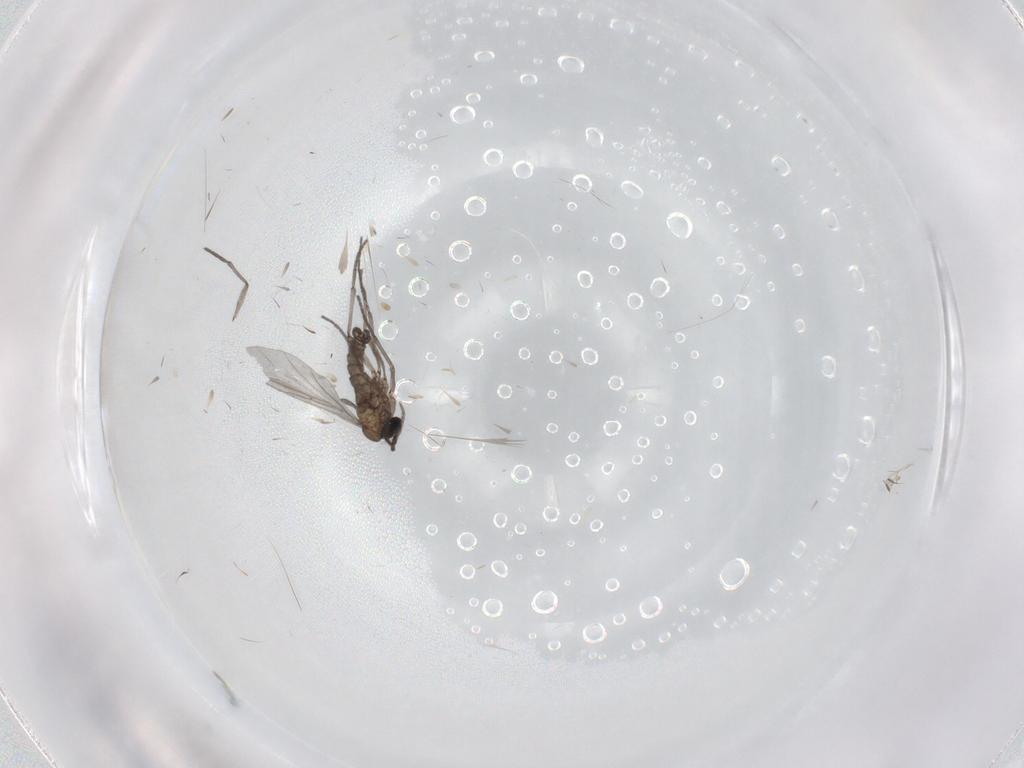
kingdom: Animalia
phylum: Arthropoda
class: Insecta
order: Diptera
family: Sciaridae
